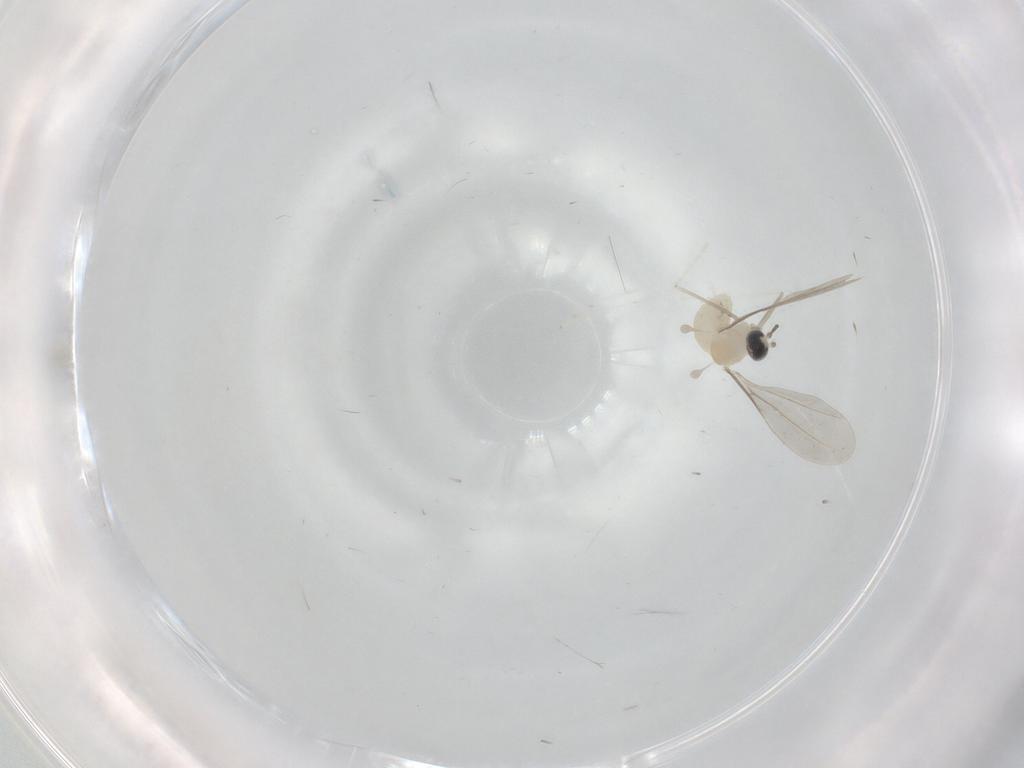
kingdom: Animalia
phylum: Arthropoda
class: Insecta
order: Diptera
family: Cecidomyiidae
